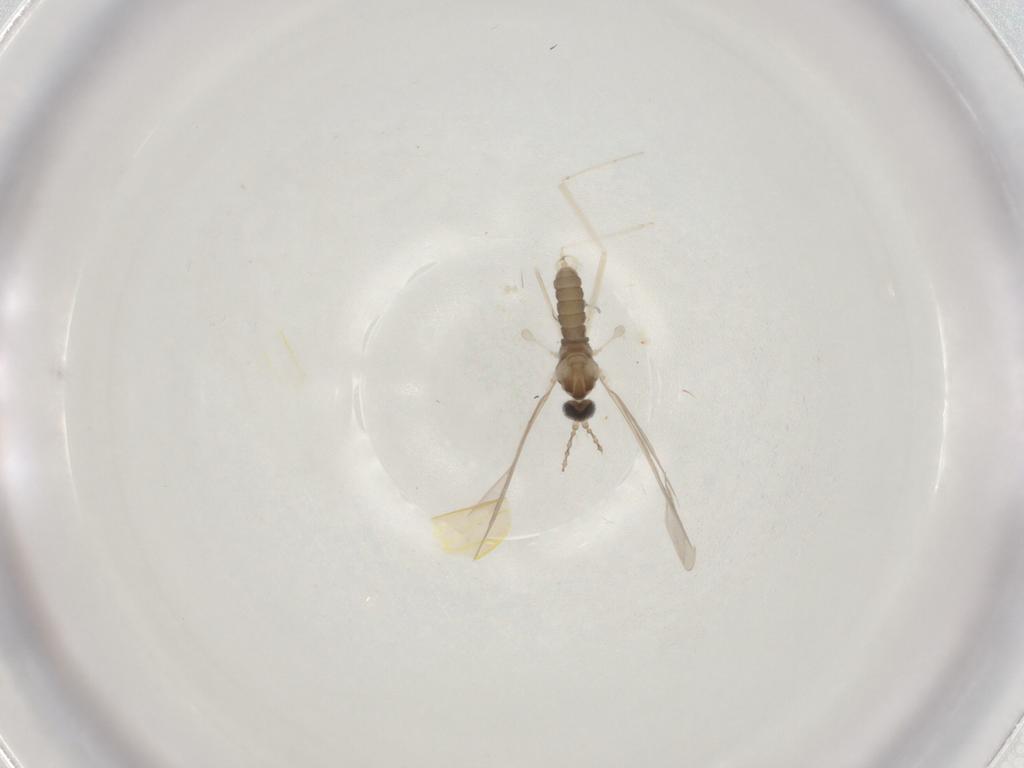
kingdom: Animalia
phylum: Arthropoda
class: Insecta
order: Diptera
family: Cecidomyiidae
